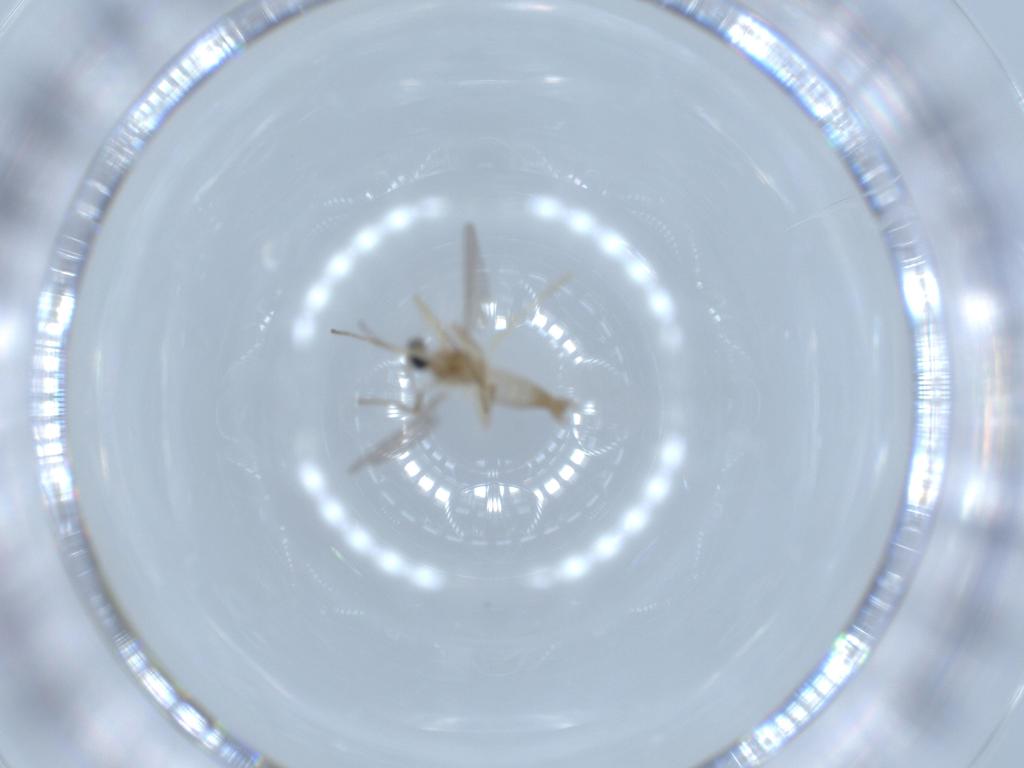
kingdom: Animalia
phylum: Arthropoda
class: Insecta
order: Diptera
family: Cecidomyiidae
